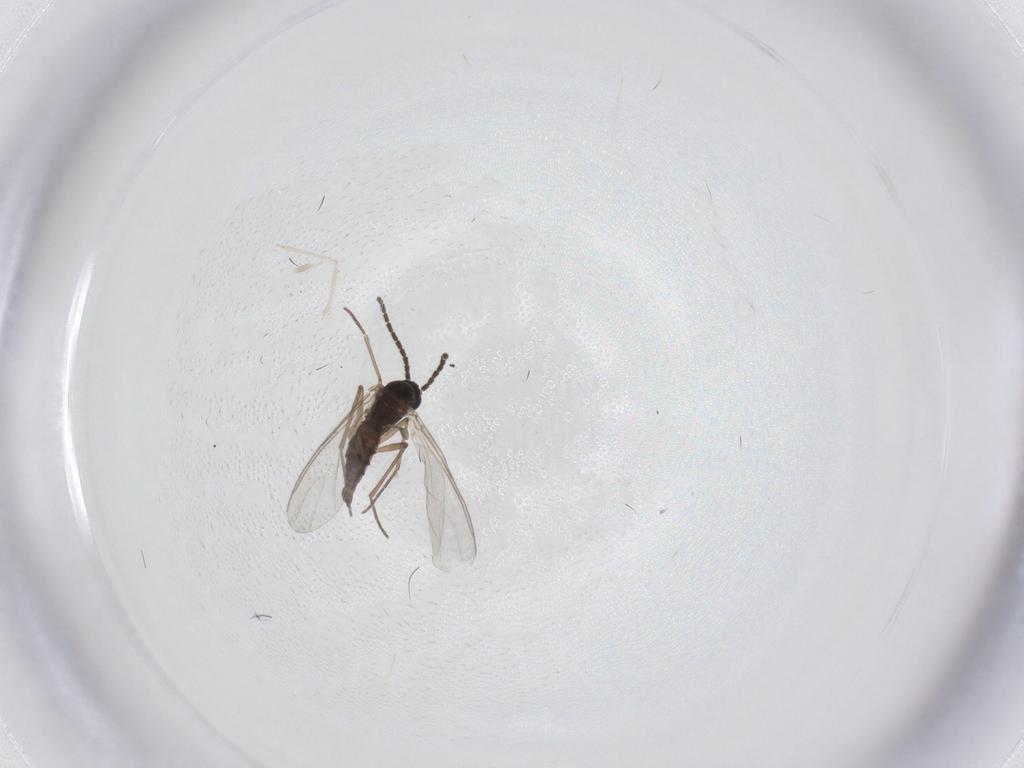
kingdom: Animalia
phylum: Arthropoda
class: Insecta
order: Diptera
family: Sciaridae
